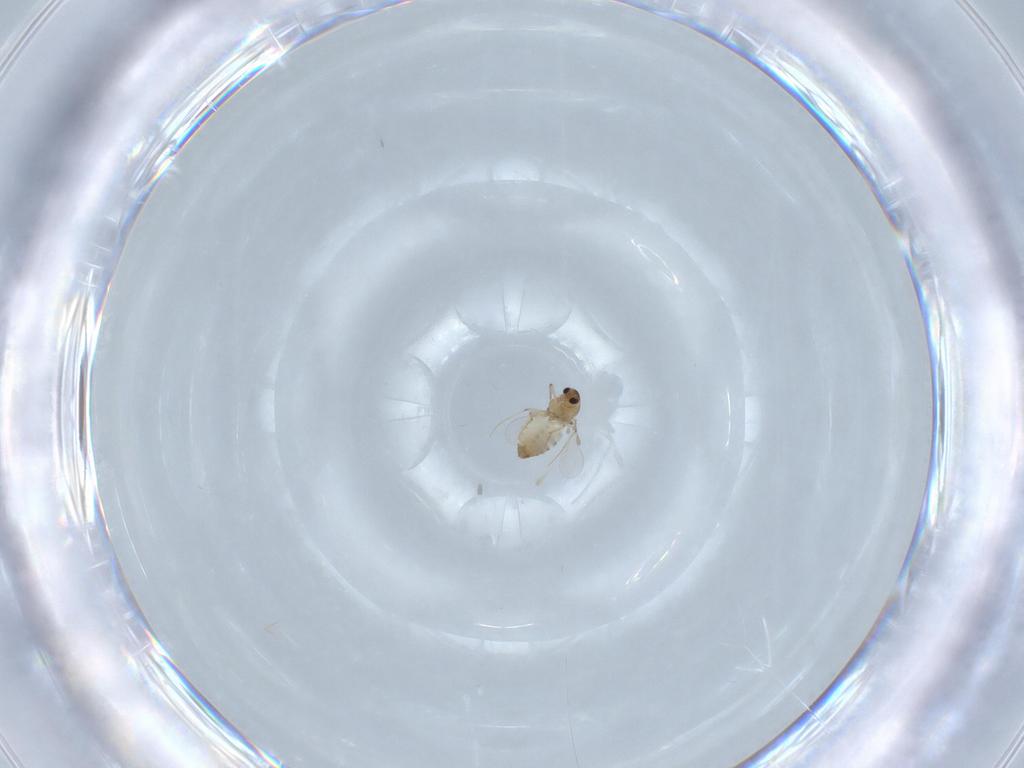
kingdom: Animalia
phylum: Arthropoda
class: Insecta
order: Diptera
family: Chironomidae
